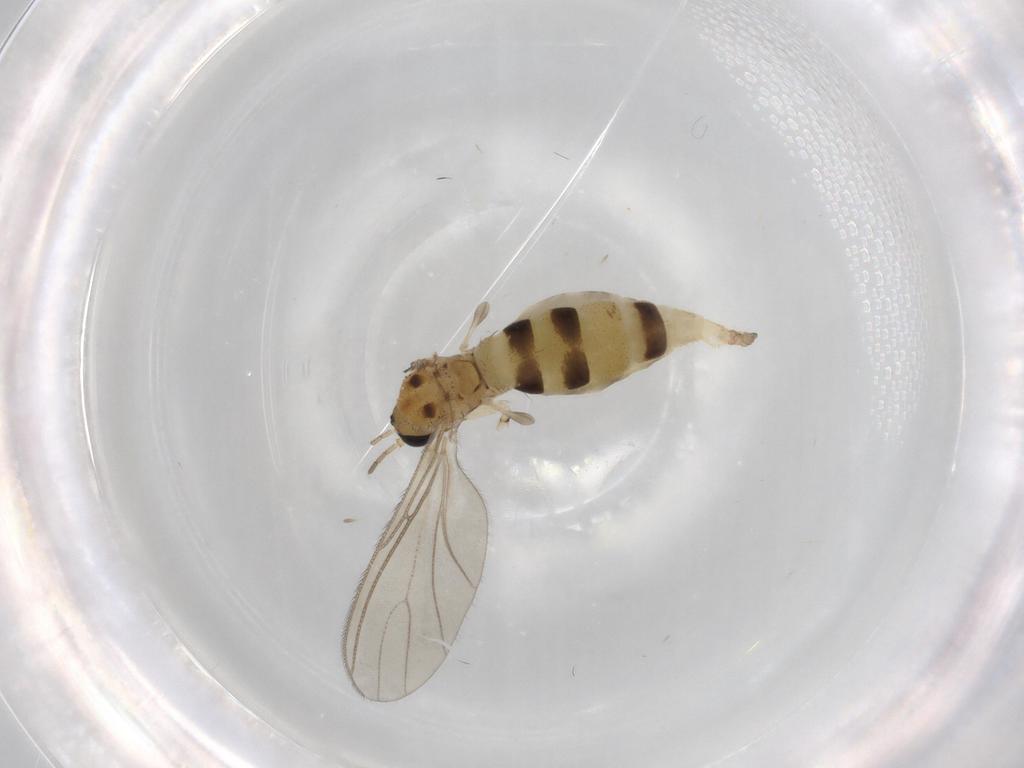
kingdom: Animalia
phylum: Arthropoda
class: Insecta
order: Diptera
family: Sciaridae
